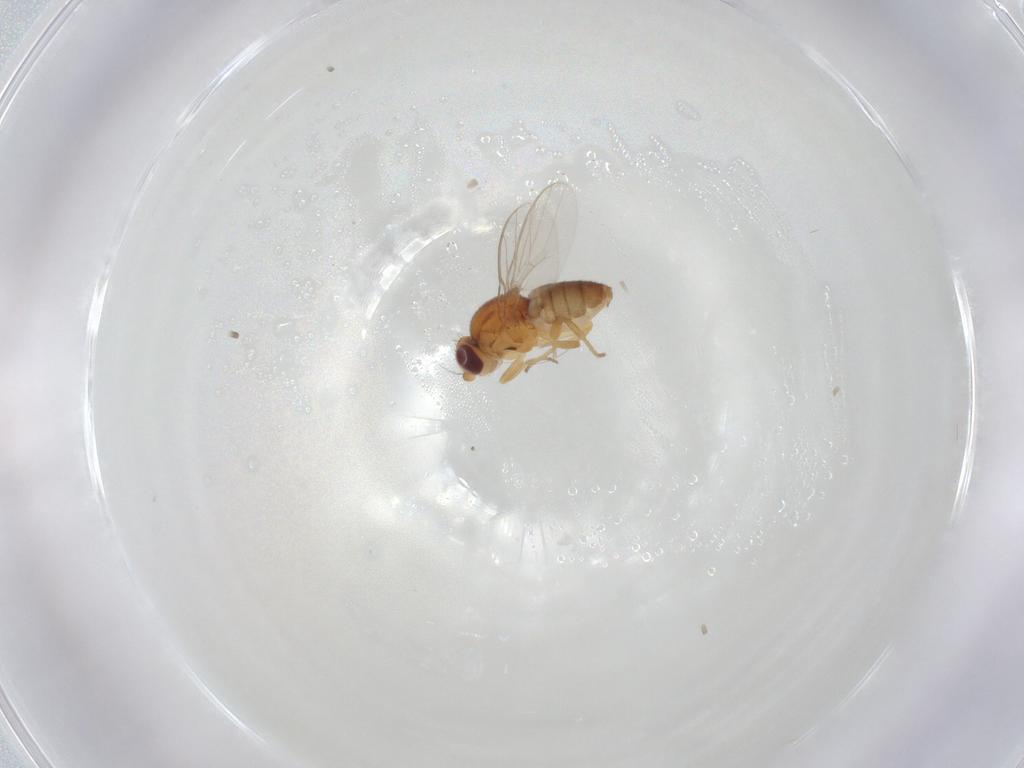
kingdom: Animalia
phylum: Arthropoda
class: Insecta
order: Diptera
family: Chloropidae
